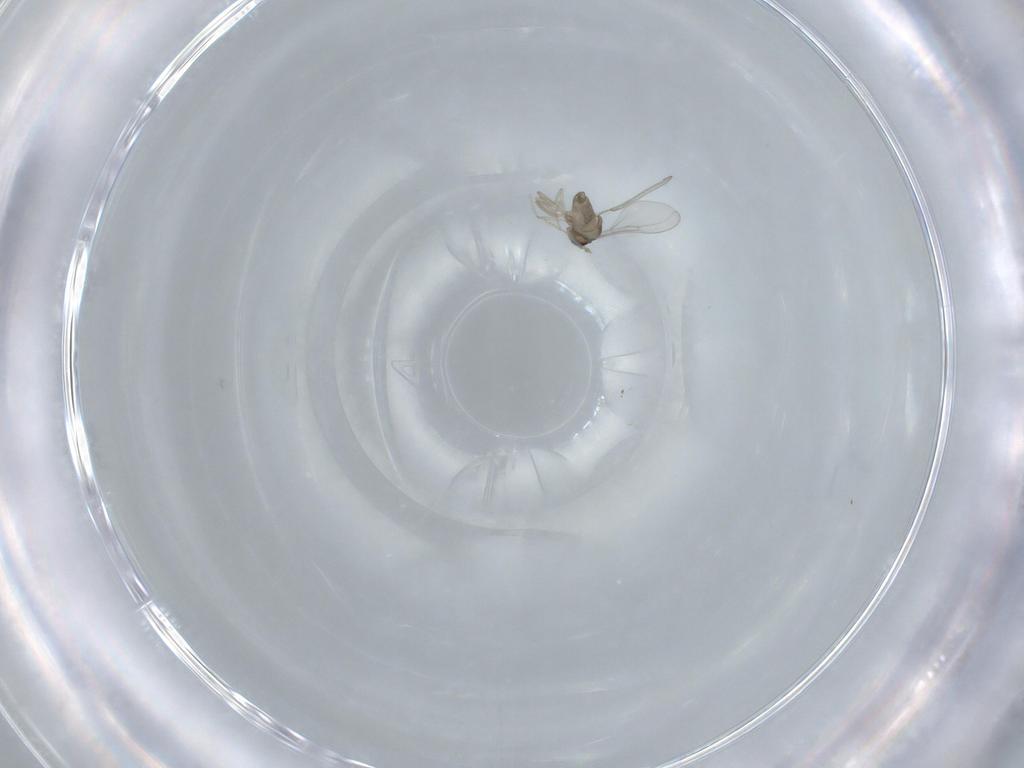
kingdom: Animalia
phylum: Arthropoda
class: Insecta
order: Diptera
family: Cecidomyiidae
